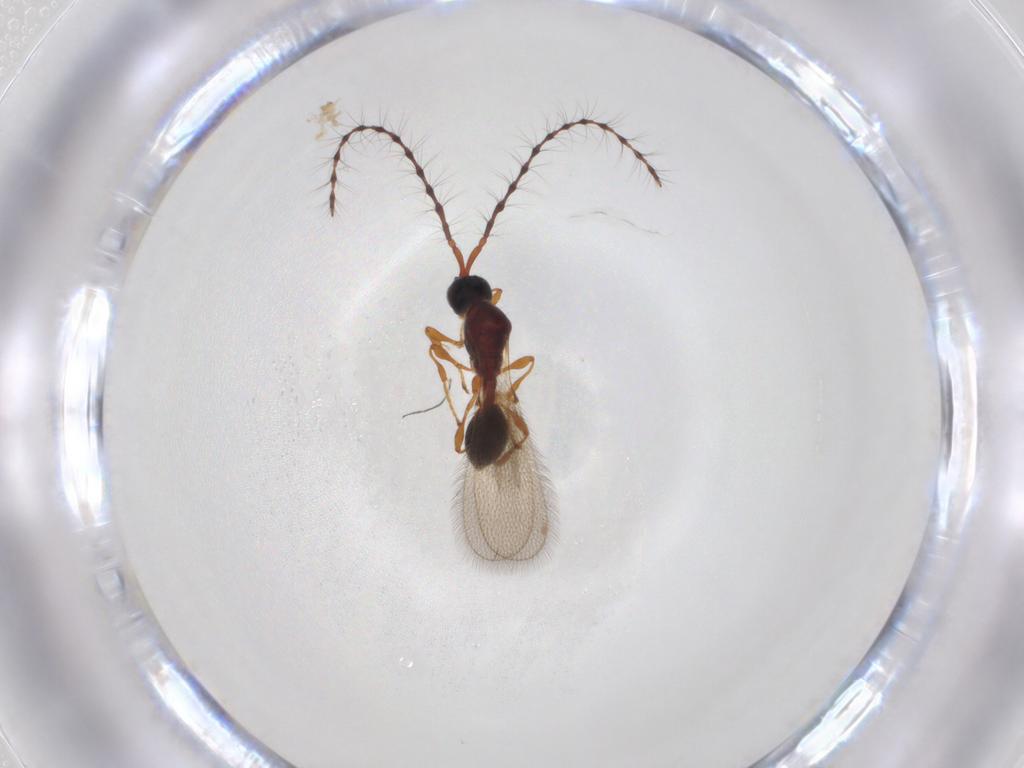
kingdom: Animalia
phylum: Arthropoda
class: Insecta
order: Hymenoptera
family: Diapriidae
